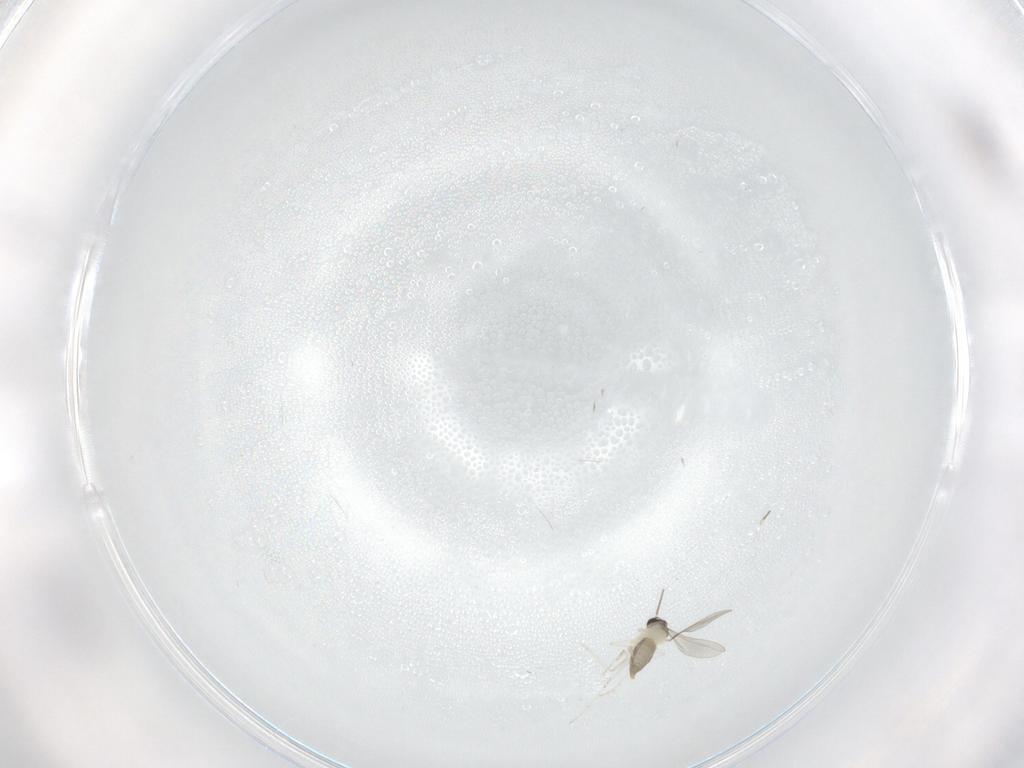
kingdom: Animalia
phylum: Arthropoda
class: Insecta
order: Diptera
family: Cecidomyiidae
